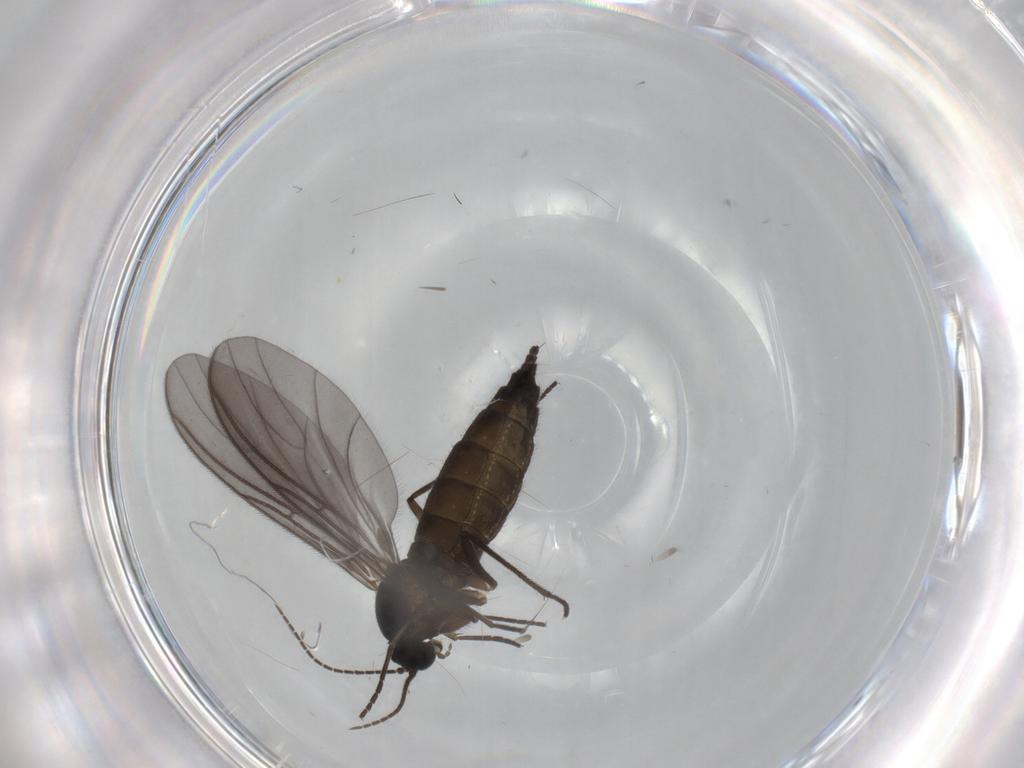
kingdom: Animalia
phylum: Arthropoda
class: Insecta
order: Diptera
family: Sciaridae
